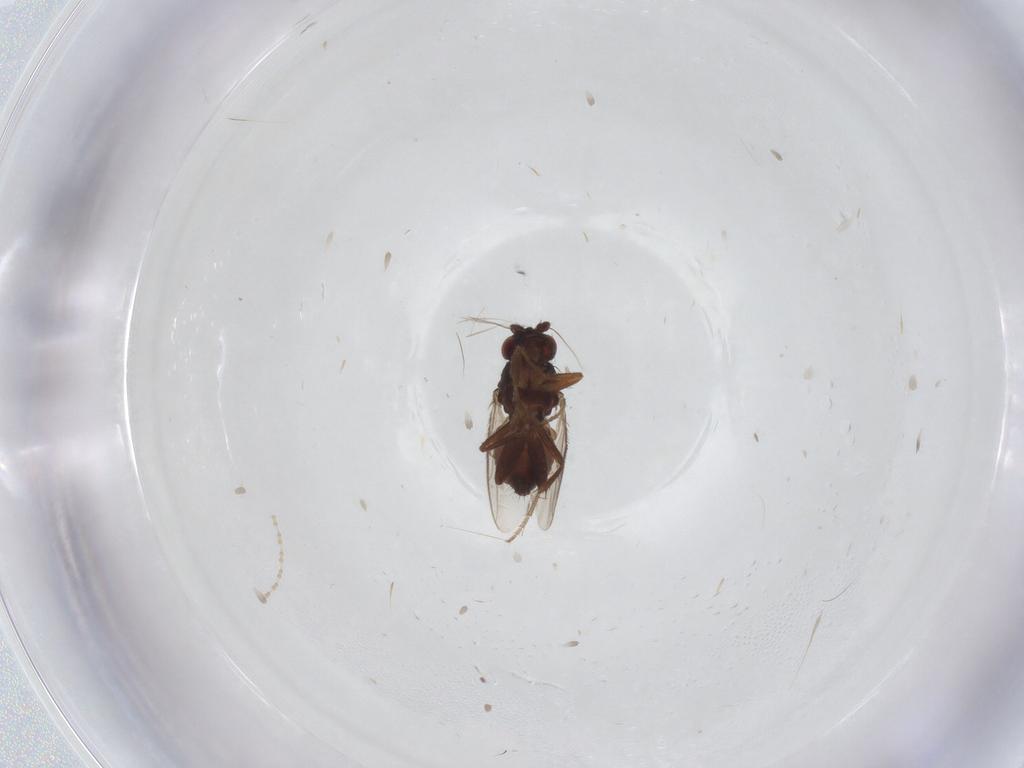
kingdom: Animalia
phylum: Arthropoda
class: Insecta
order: Diptera
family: Sphaeroceridae
